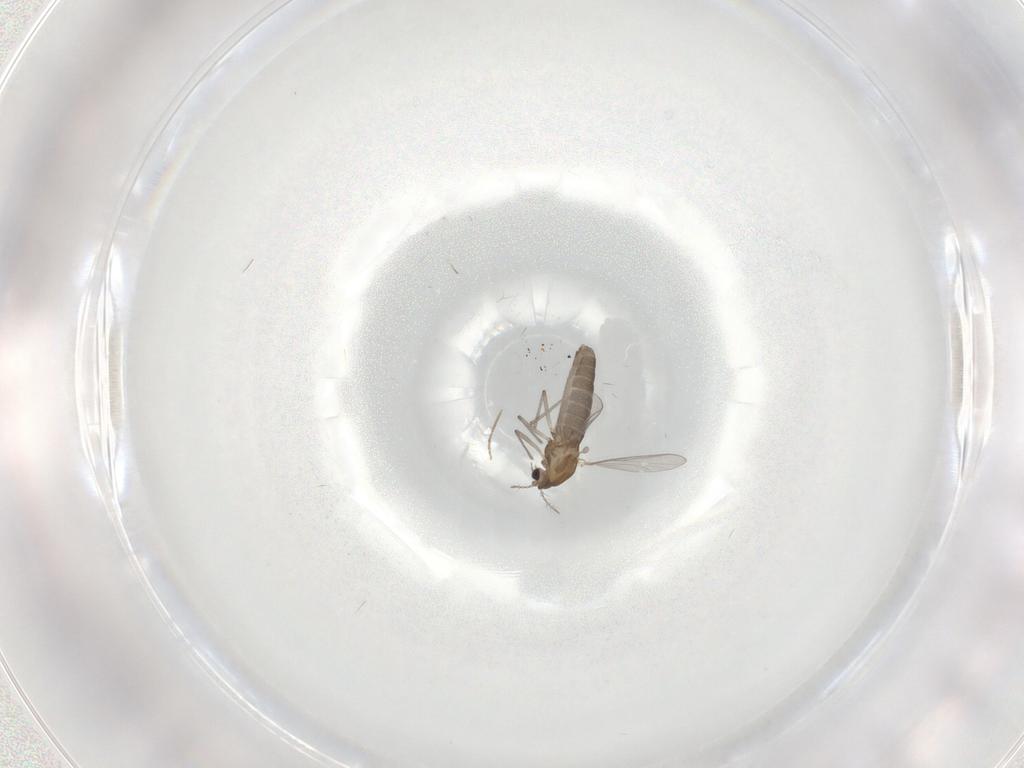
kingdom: Animalia
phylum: Arthropoda
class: Insecta
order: Diptera
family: Chironomidae
